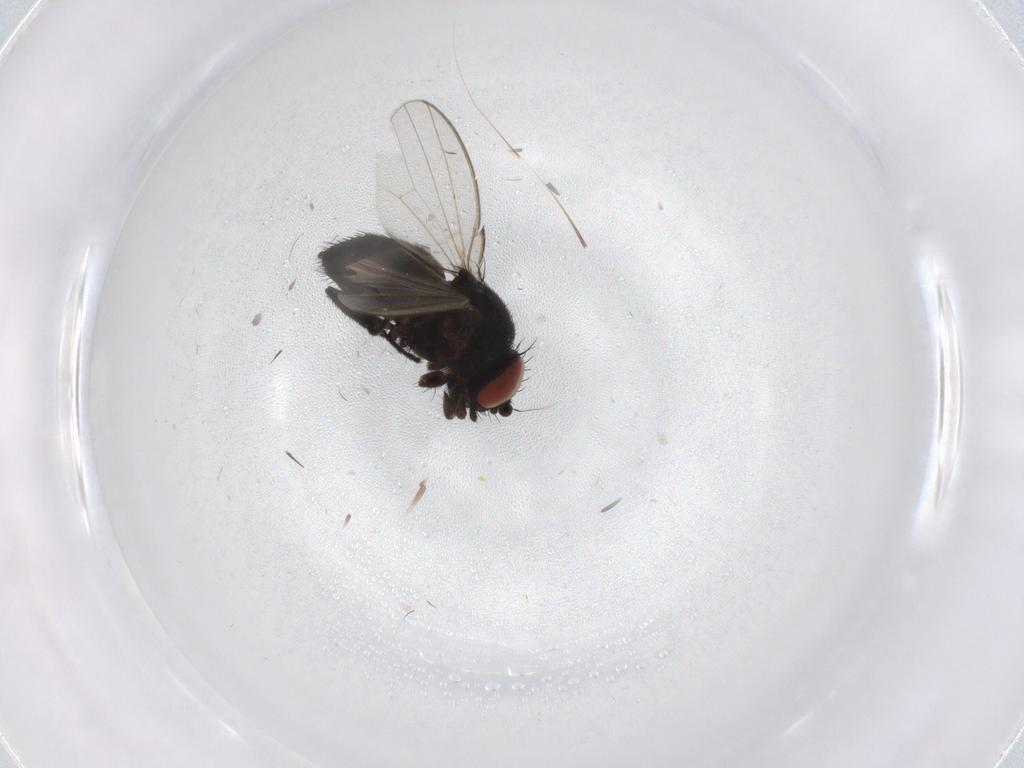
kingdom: Animalia
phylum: Arthropoda
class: Insecta
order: Diptera
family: Milichiidae
